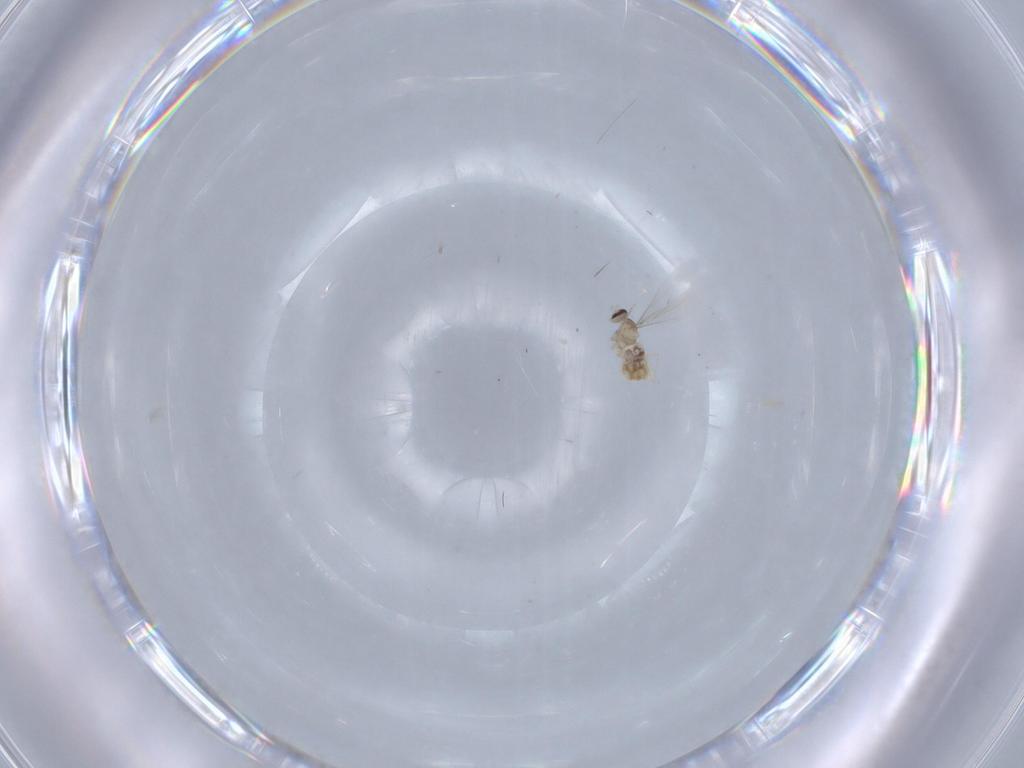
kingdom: Animalia
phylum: Arthropoda
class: Insecta
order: Diptera
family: Cecidomyiidae
